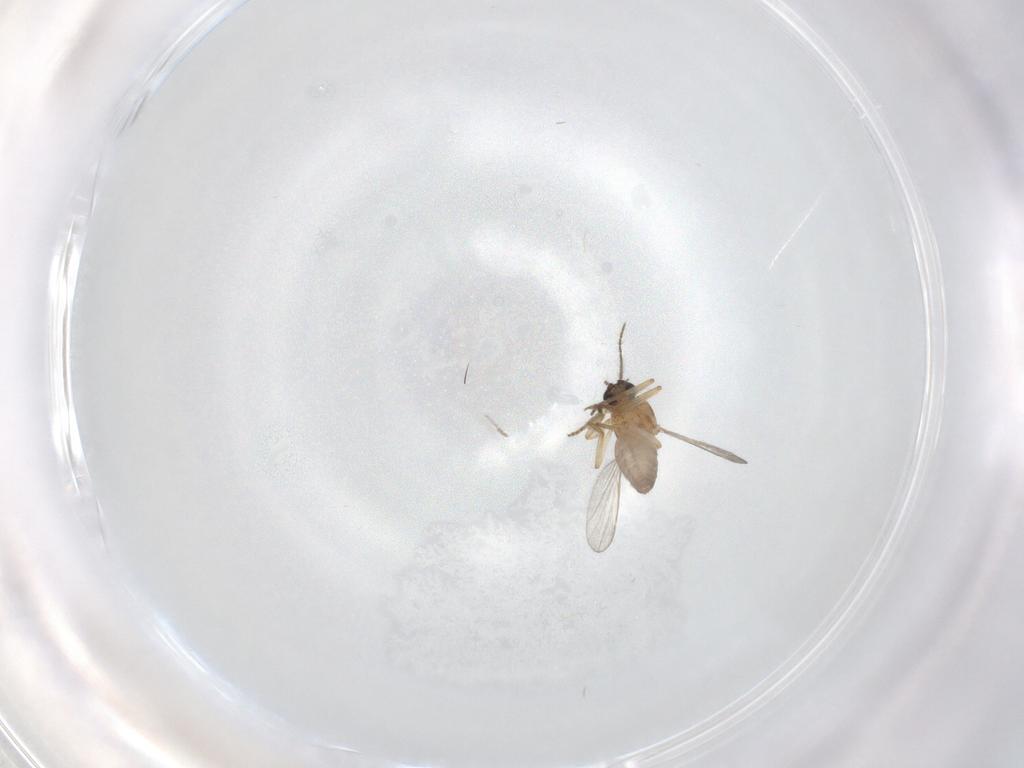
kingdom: Animalia
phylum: Arthropoda
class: Insecta
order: Diptera
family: Chironomidae
